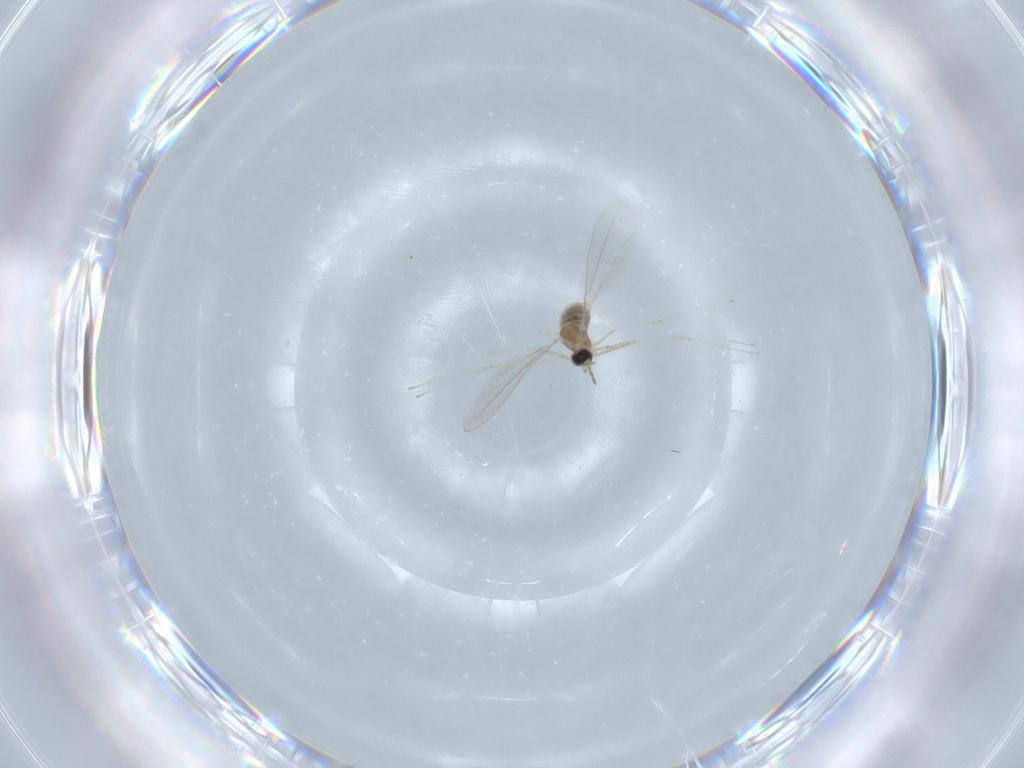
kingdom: Animalia
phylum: Arthropoda
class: Insecta
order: Diptera
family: Cecidomyiidae
